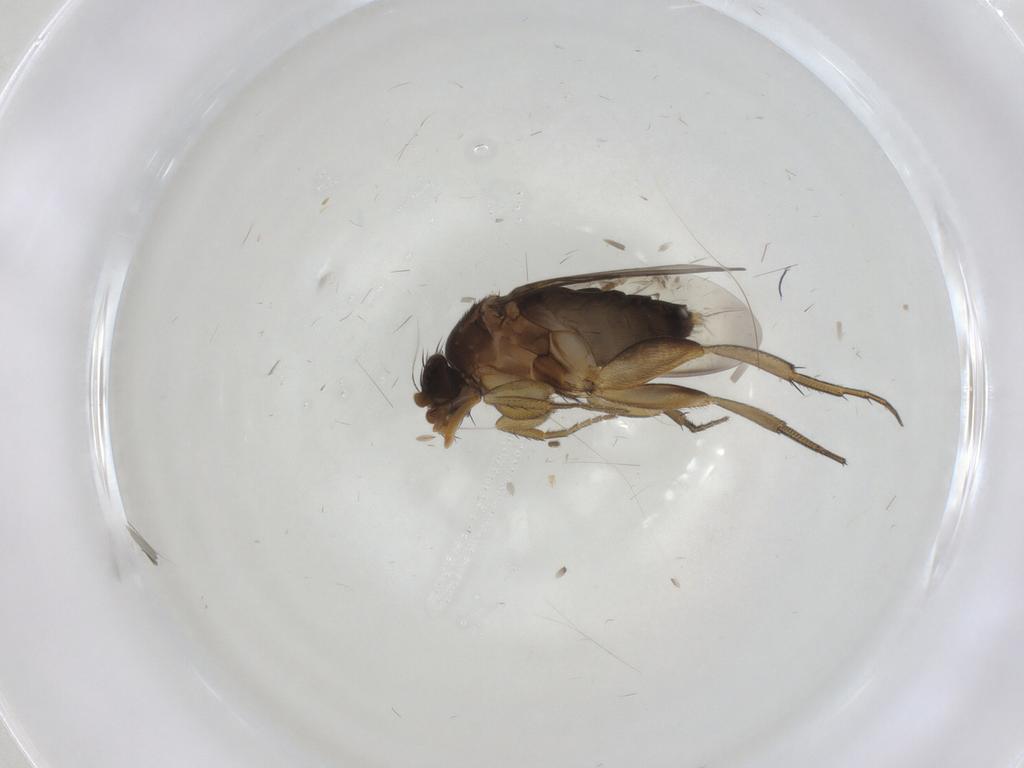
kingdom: Animalia
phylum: Arthropoda
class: Insecta
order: Diptera
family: Phoridae
